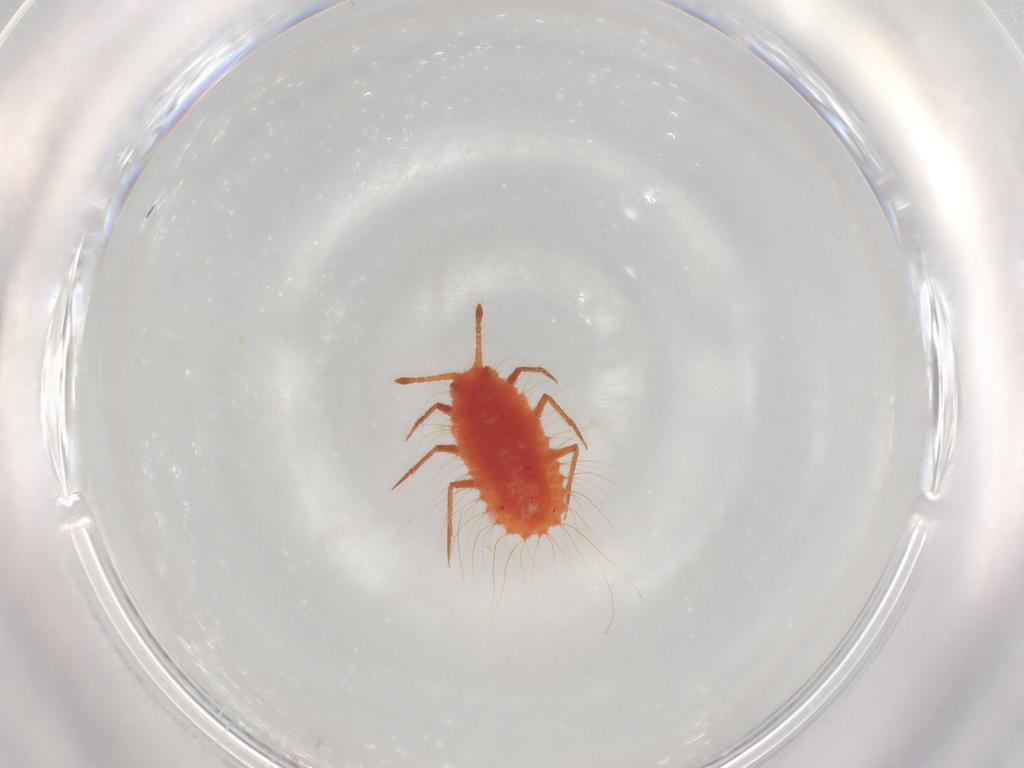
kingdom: Animalia
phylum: Arthropoda
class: Insecta
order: Hemiptera
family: Monophlebidae
